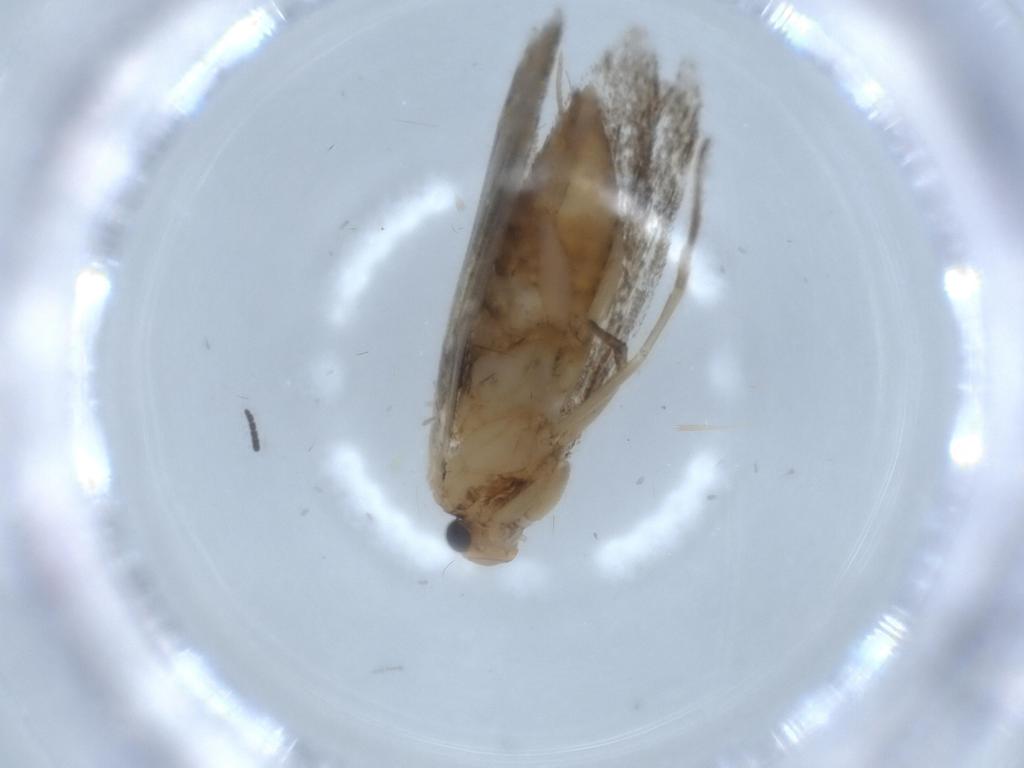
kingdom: Animalia
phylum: Arthropoda
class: Insecta
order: Lepidoptera
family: Tineidae
